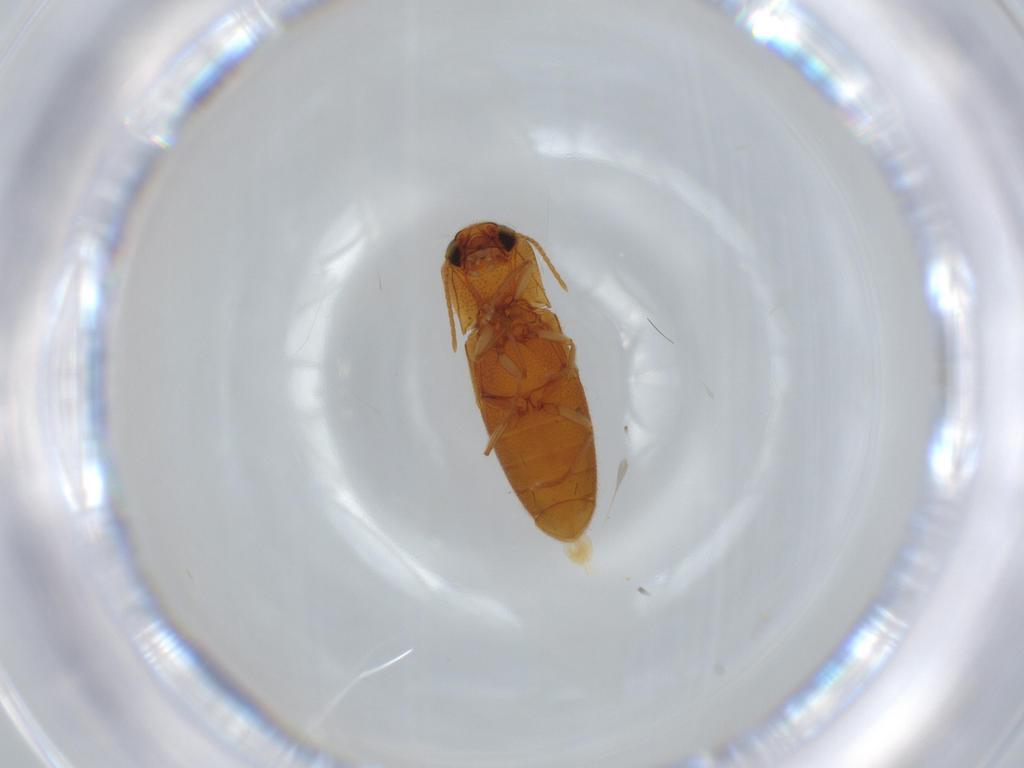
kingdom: Animalia
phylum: Arthropoda
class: Insecta
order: Coleoptera
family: Elateridae
